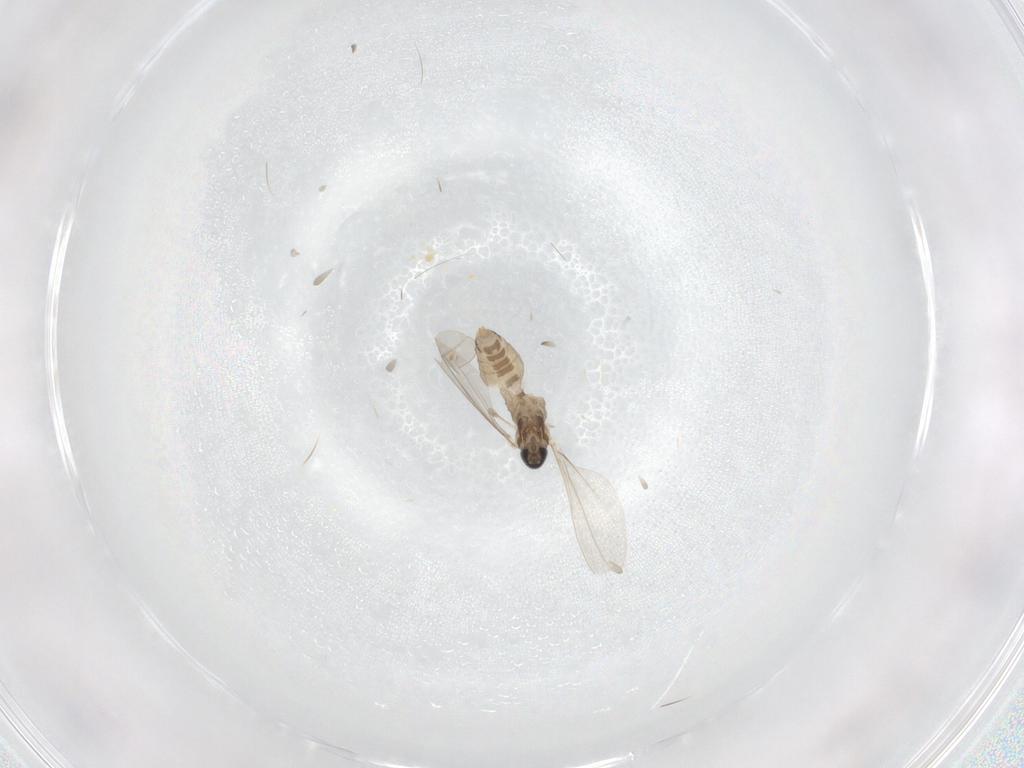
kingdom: Animalia
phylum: Arthropoda
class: Insecta
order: Diptera
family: Cecidomyiidae
